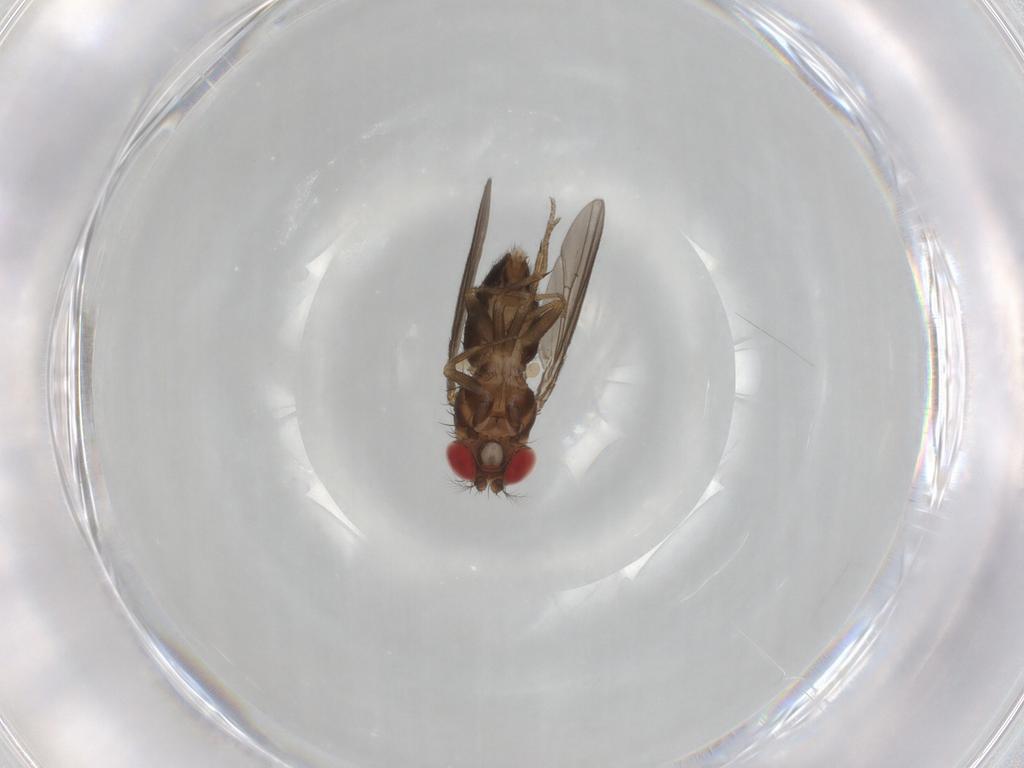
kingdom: Animalia
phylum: Arthropoda
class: Insecta
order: Diptera
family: Drosophilidae
